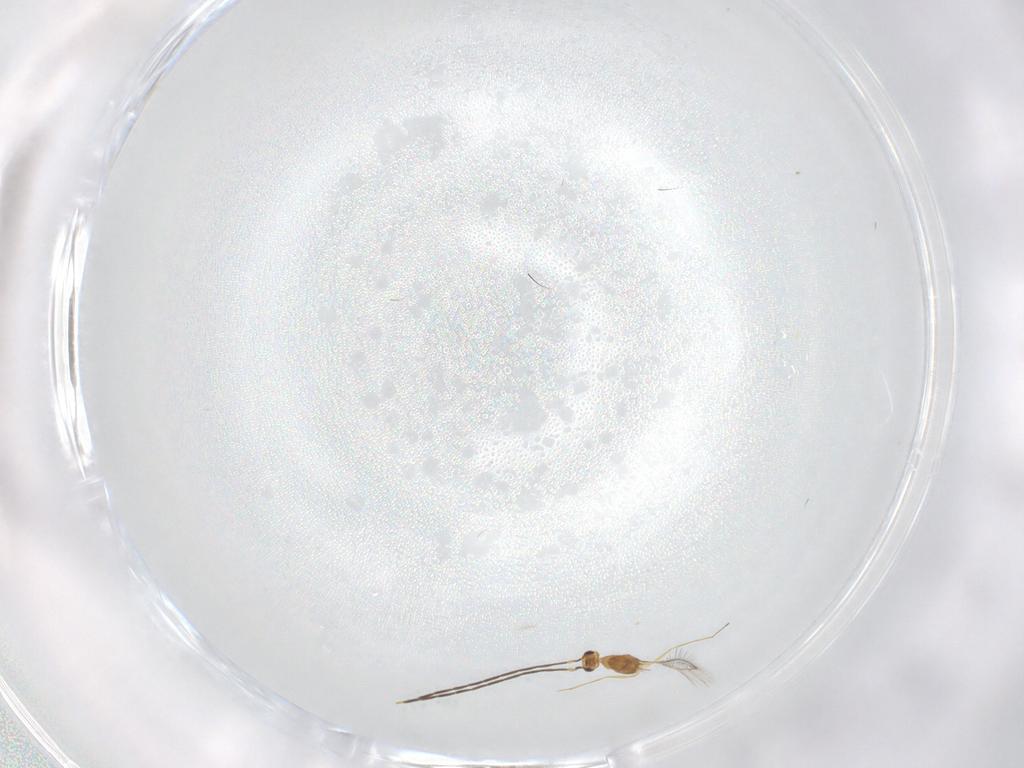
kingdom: Animalia
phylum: Arthropoda
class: Insecta
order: Hymenoptera
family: Mymaridae
